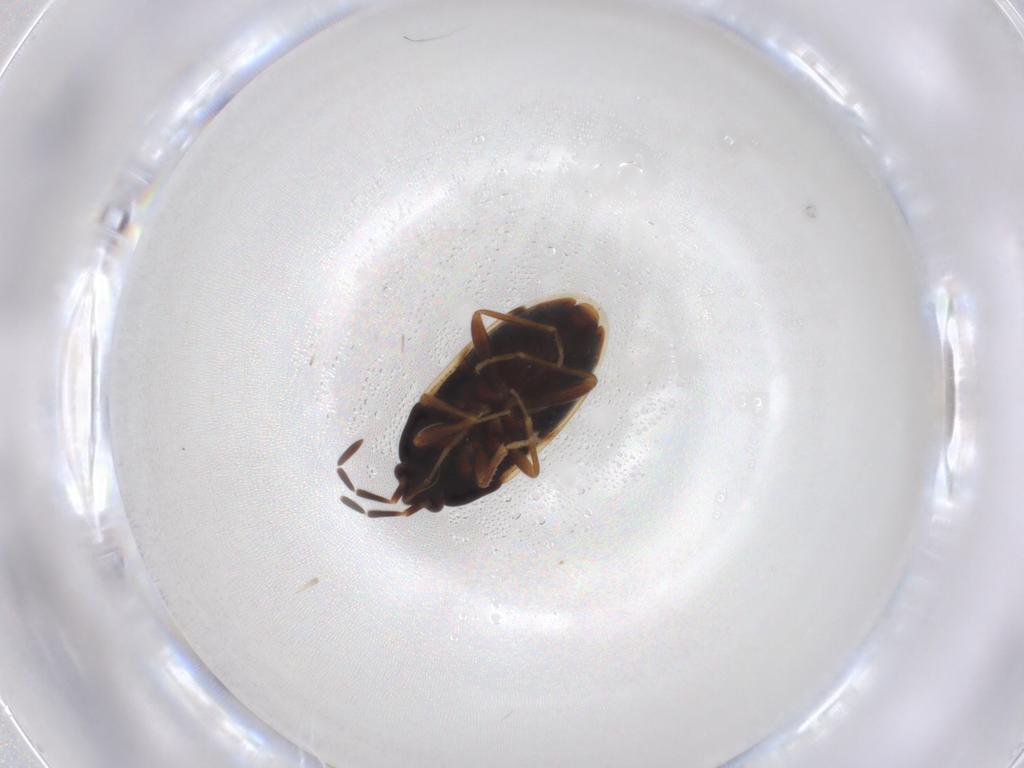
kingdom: Animalia
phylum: Arthropoda
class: Insecta
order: Hemiptera
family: Rhyparochromidae
